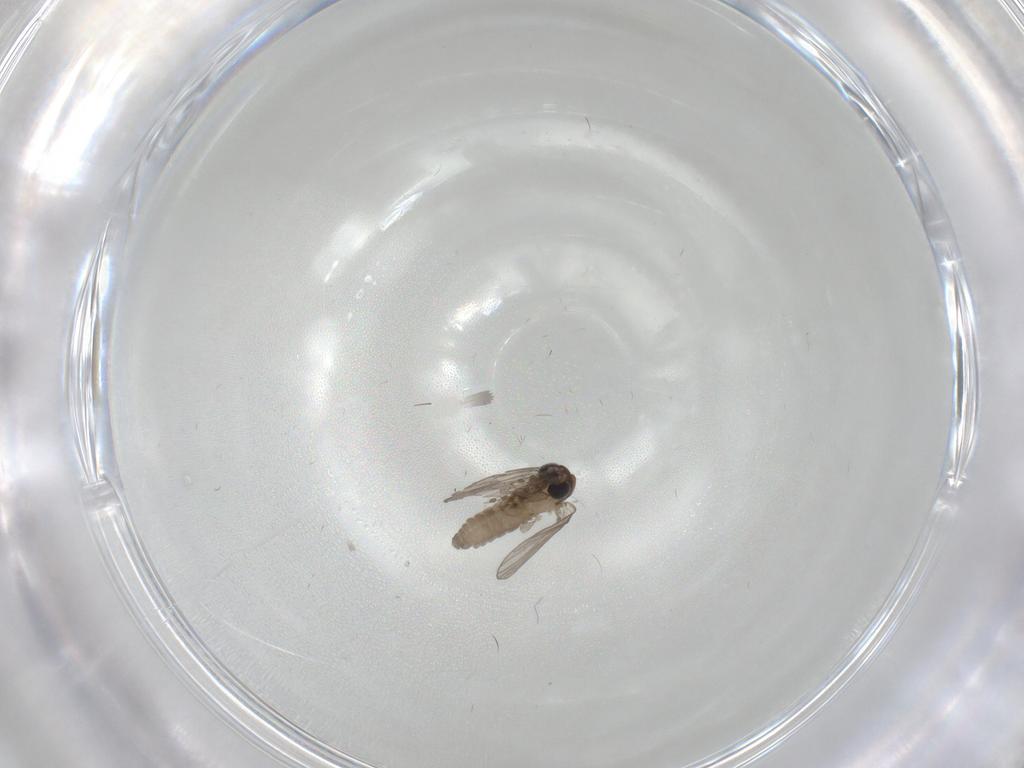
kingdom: Animalia
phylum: Arthropoda
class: Insecta
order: Diptera
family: Psychodidae
